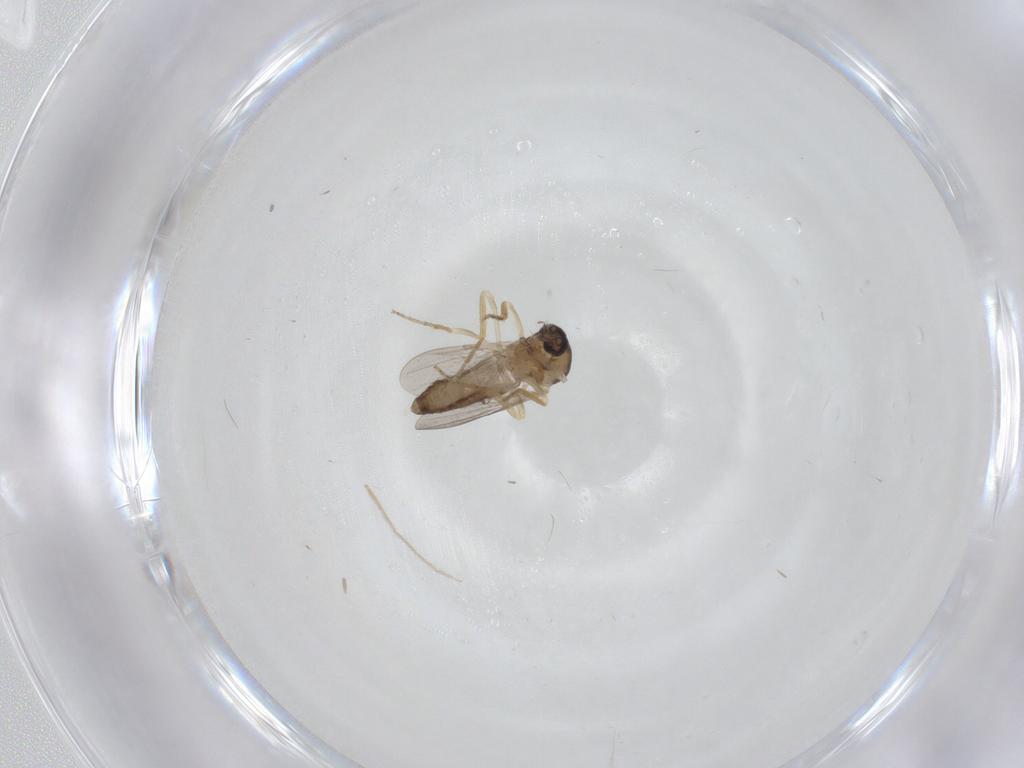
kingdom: Animalia
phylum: Arthropoda
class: Insecta
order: Diptera
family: Ceratopogonidae
